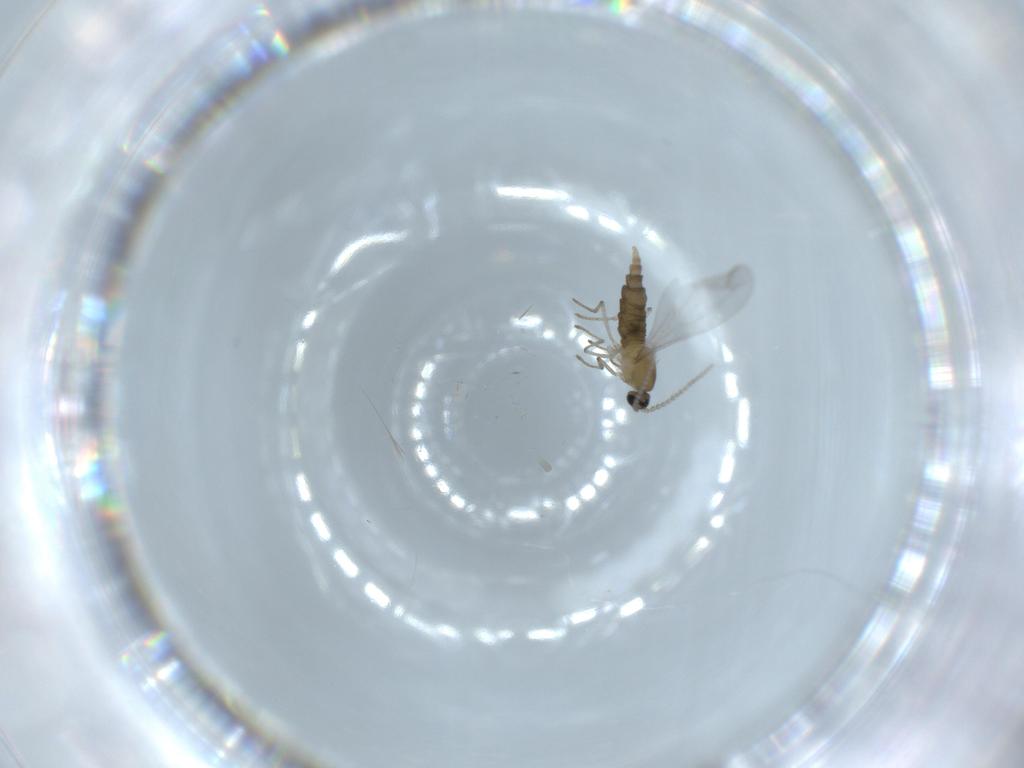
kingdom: Animalia
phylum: Arthropoda
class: Insecta
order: Diptera
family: Cecidomyiidae
